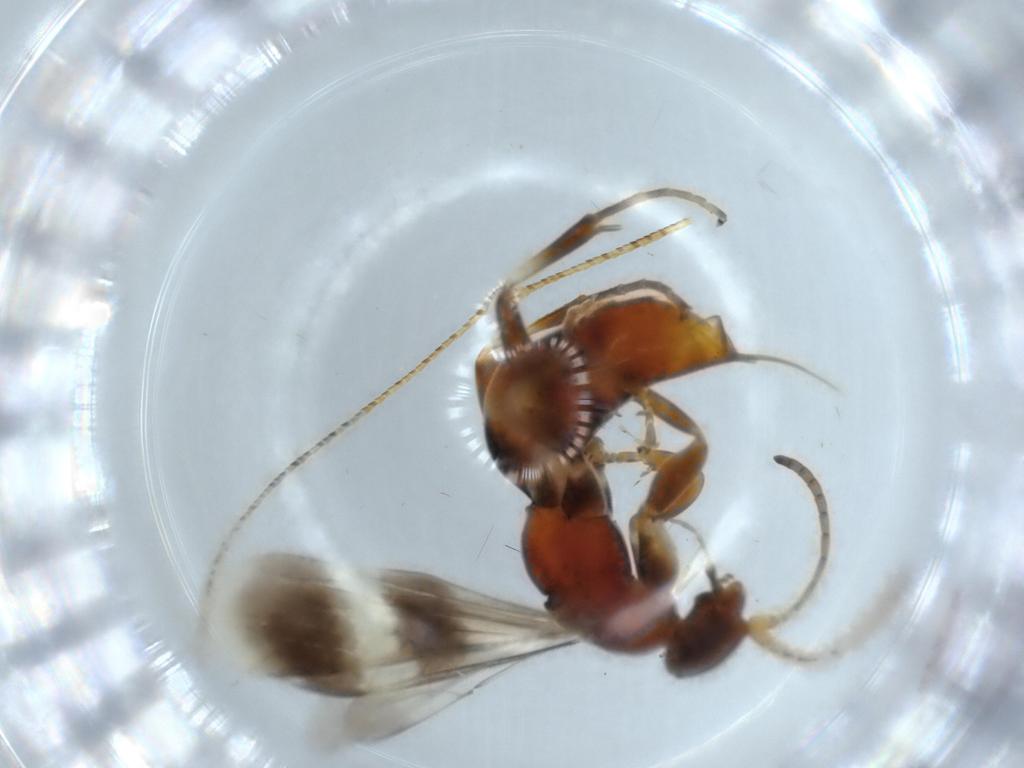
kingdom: Animalia
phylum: Arthropoda
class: Insecta
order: Hymenoptera
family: Pompilidae
